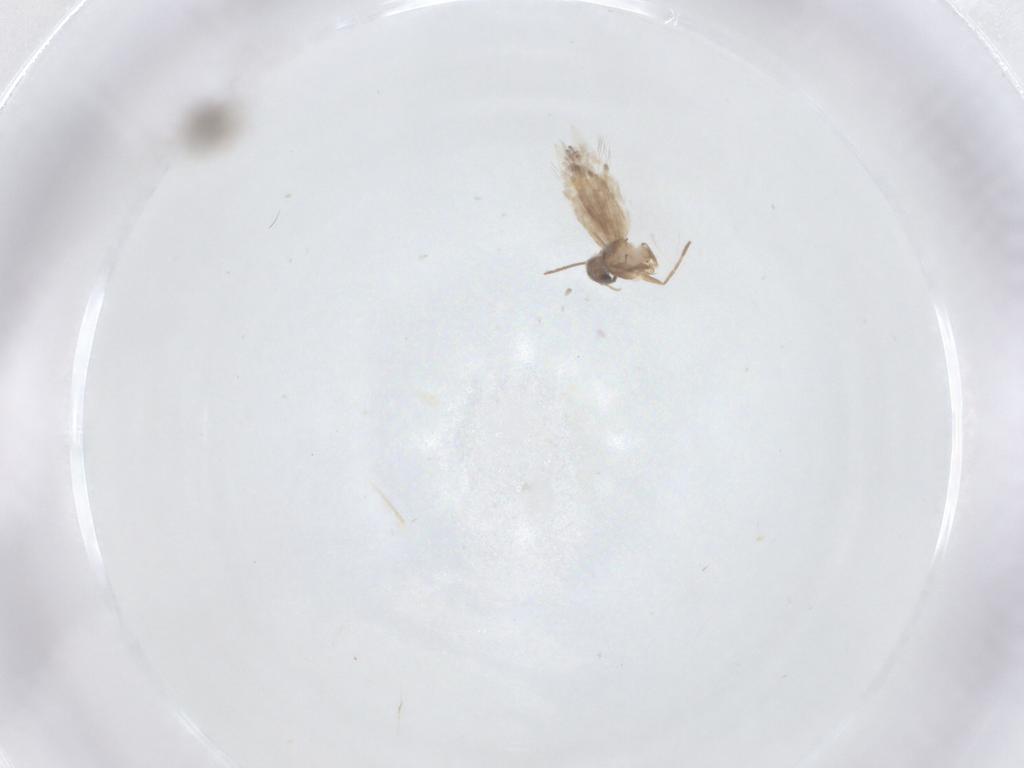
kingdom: Animalia
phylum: Arthropoda
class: Insecta
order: Lepidoptera
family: Heliozelidae
